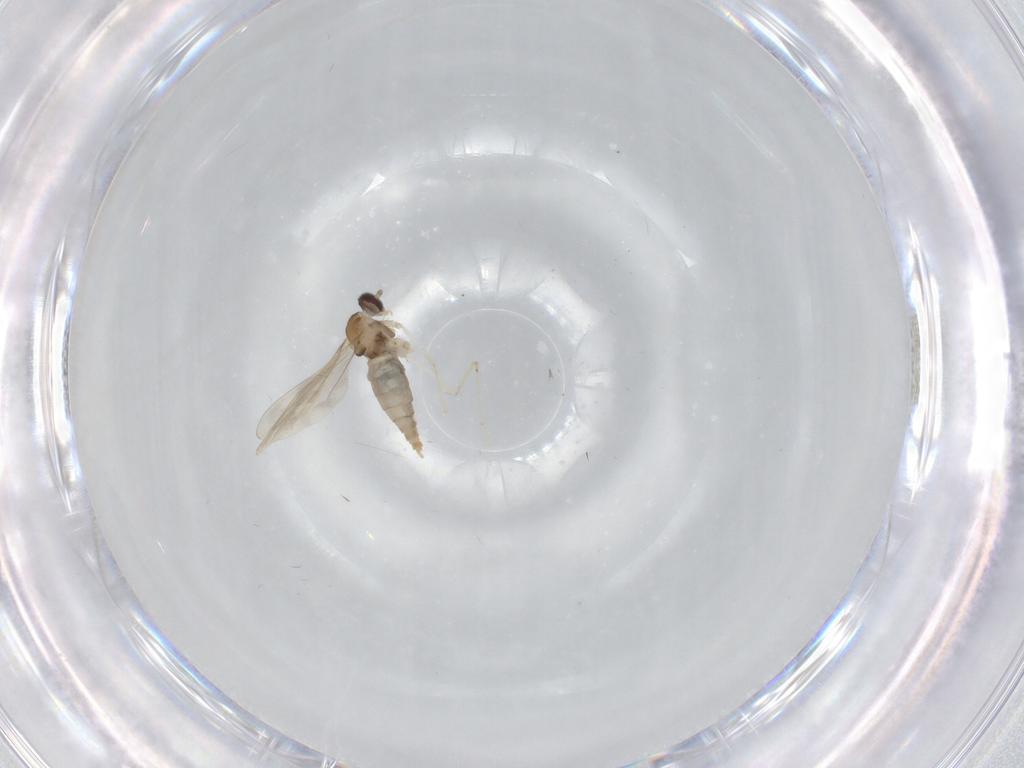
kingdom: Animalia
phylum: Arthropoda
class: Insecta
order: Diptera
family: Cecidomyiidae
